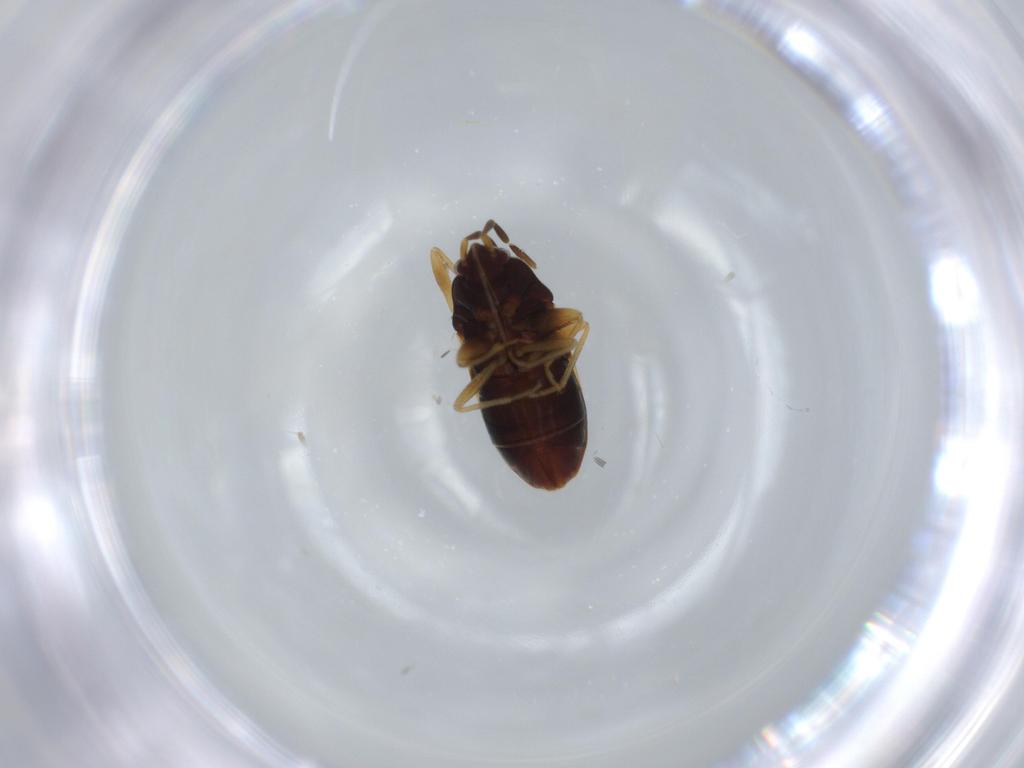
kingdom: Animalia
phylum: Arthropoda
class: Insecta
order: Hemiptera
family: Rhyparochromidae
